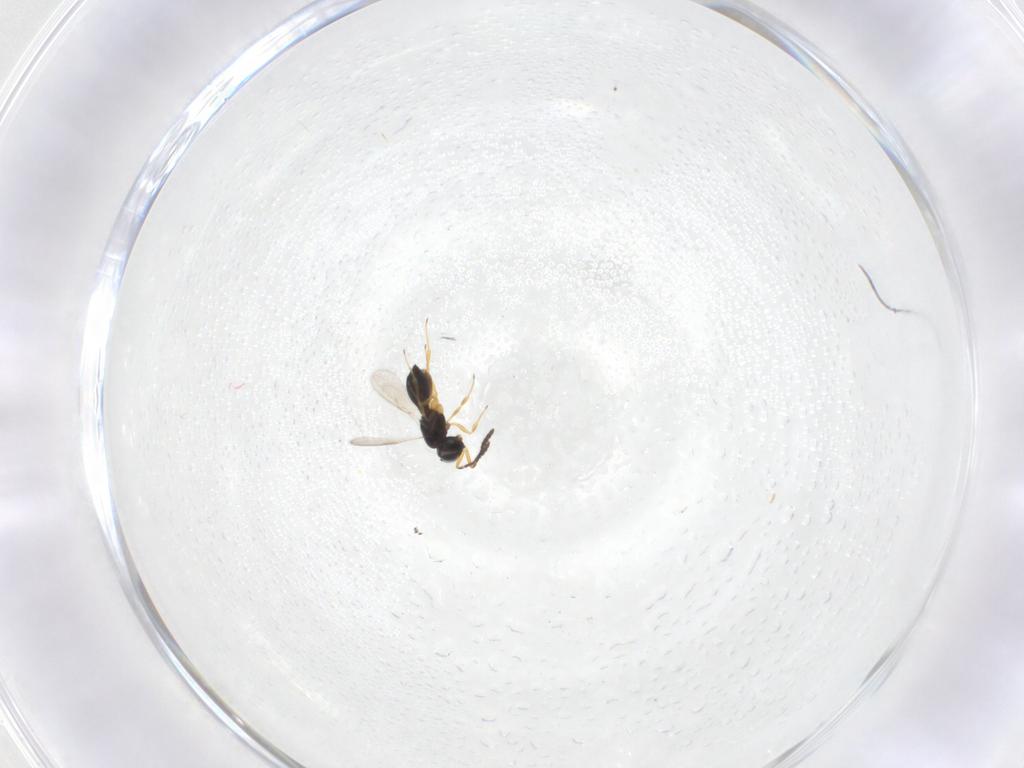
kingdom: Animalia
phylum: Arthropoda
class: Insecta
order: Hymenoptera
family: Scelionidae
